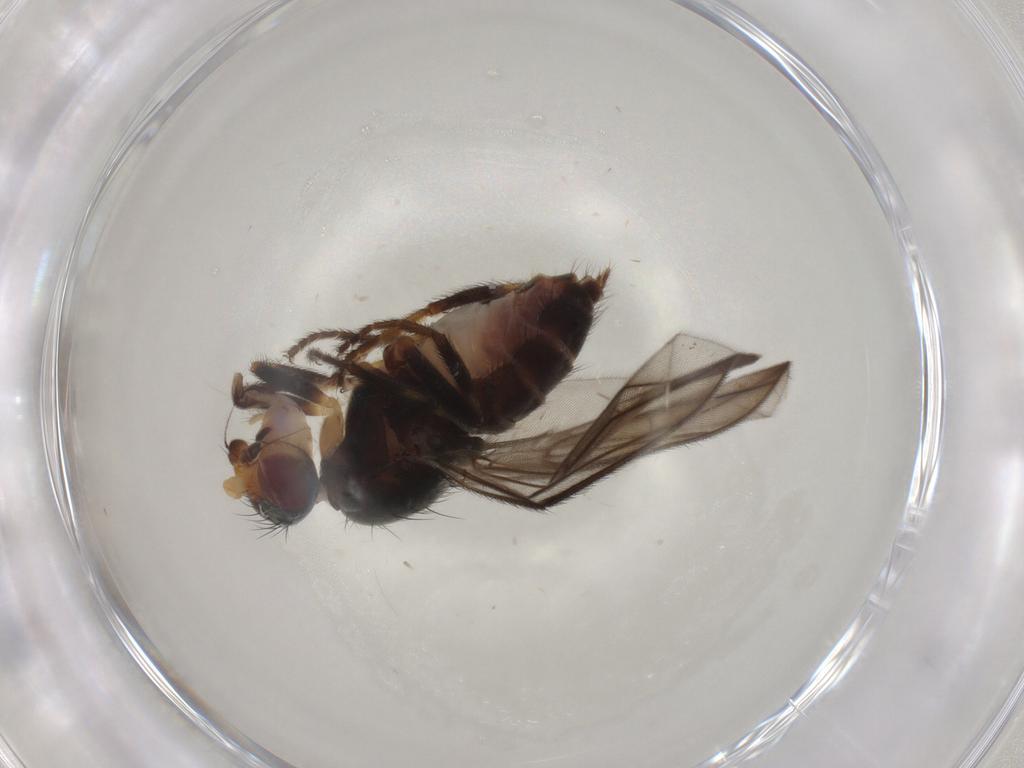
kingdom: Animalia
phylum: Arthropoda
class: Insecta
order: Diptera
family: Chloropidae
